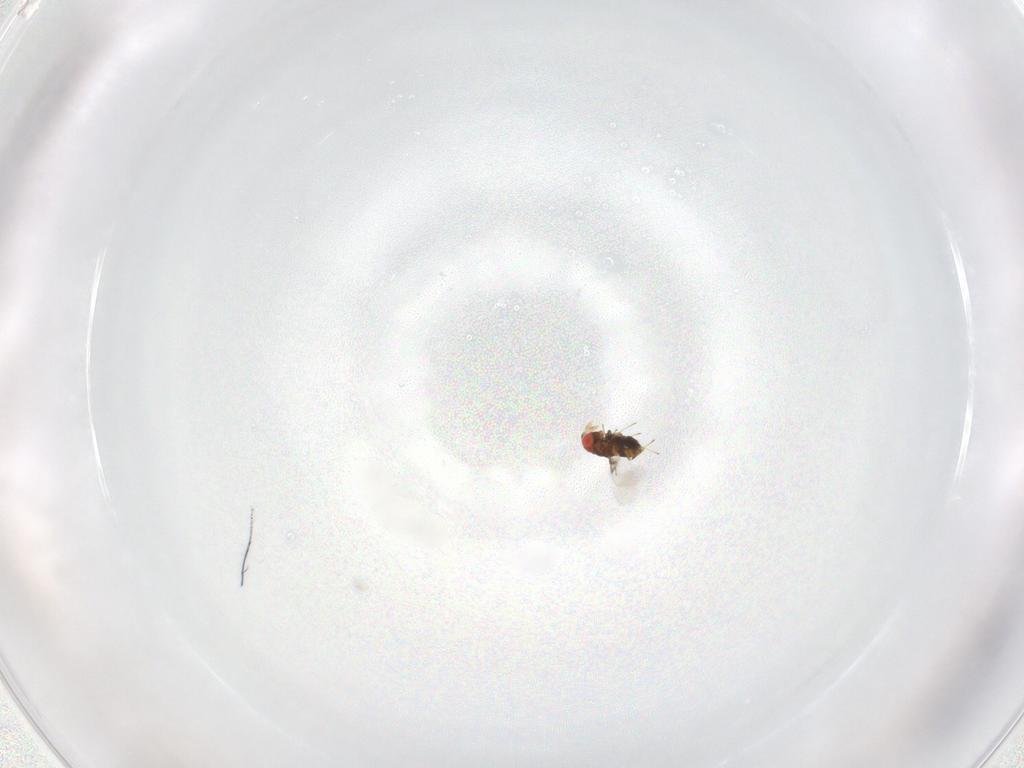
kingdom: Animalia
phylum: Arthropoda
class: Insecta
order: Hymenoptera
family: Trichogrammatidae
